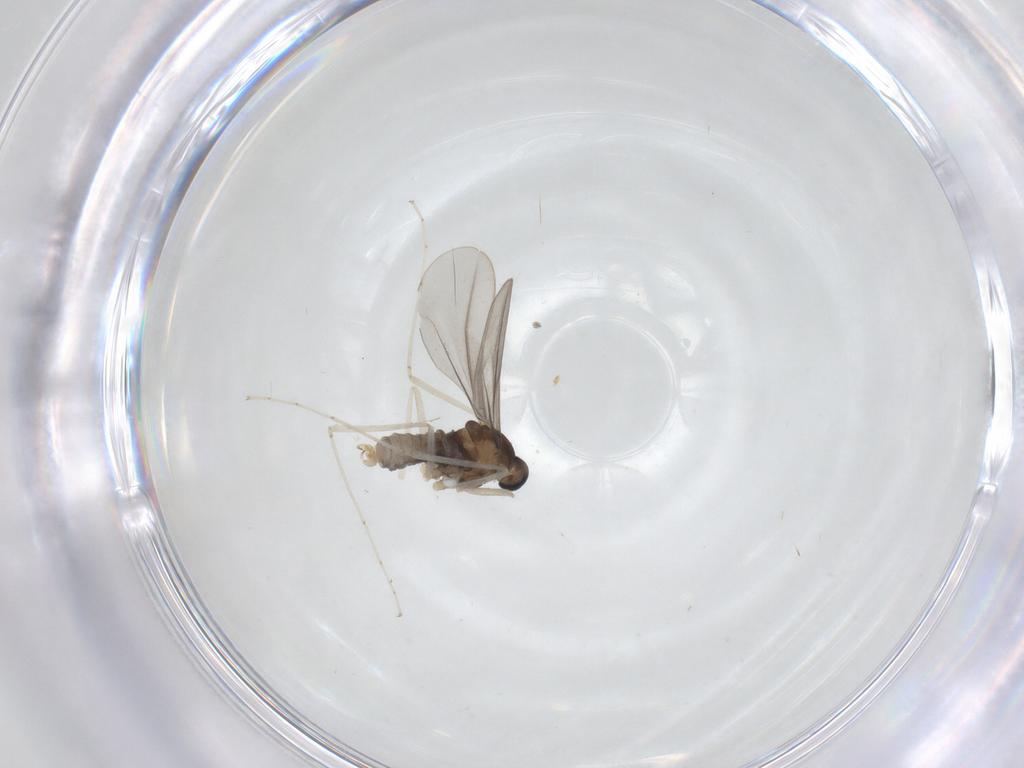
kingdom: Animalia
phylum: Arthropoda
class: Insecta
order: Diptera
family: Cecidomyiidae
